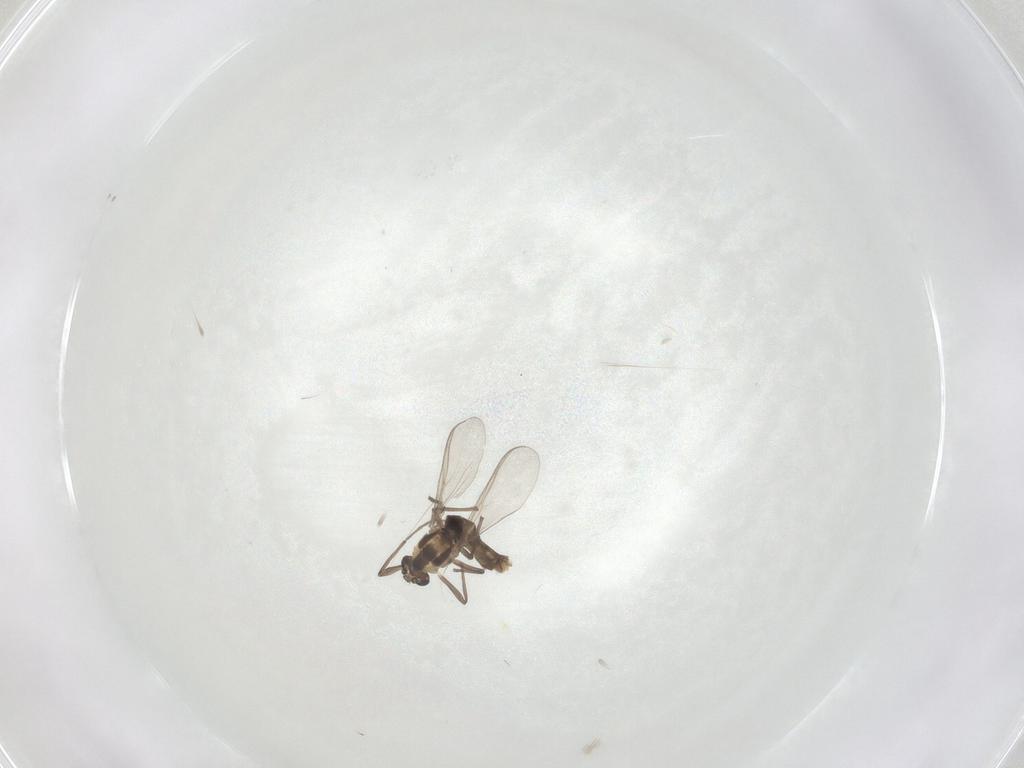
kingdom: Animalia
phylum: Arthropoda
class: Insecta
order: Diptera
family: Chironomidae
